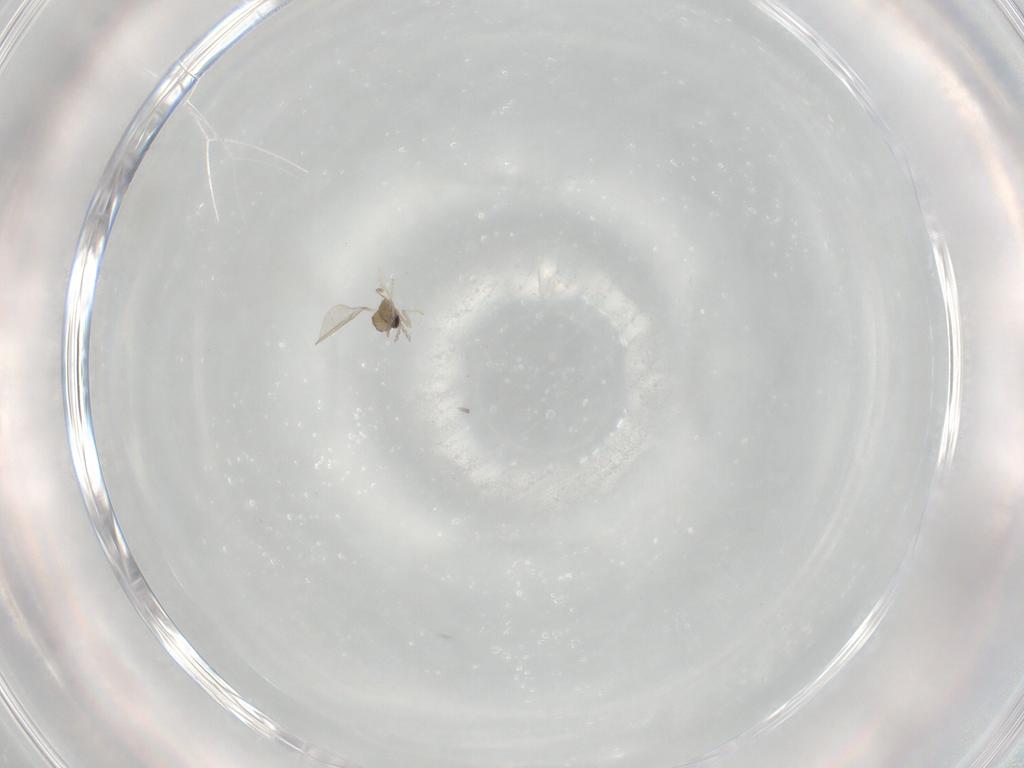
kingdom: Animalia
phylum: Arthropoda
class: Insecta
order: Diptera
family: Cecidomyiidae
